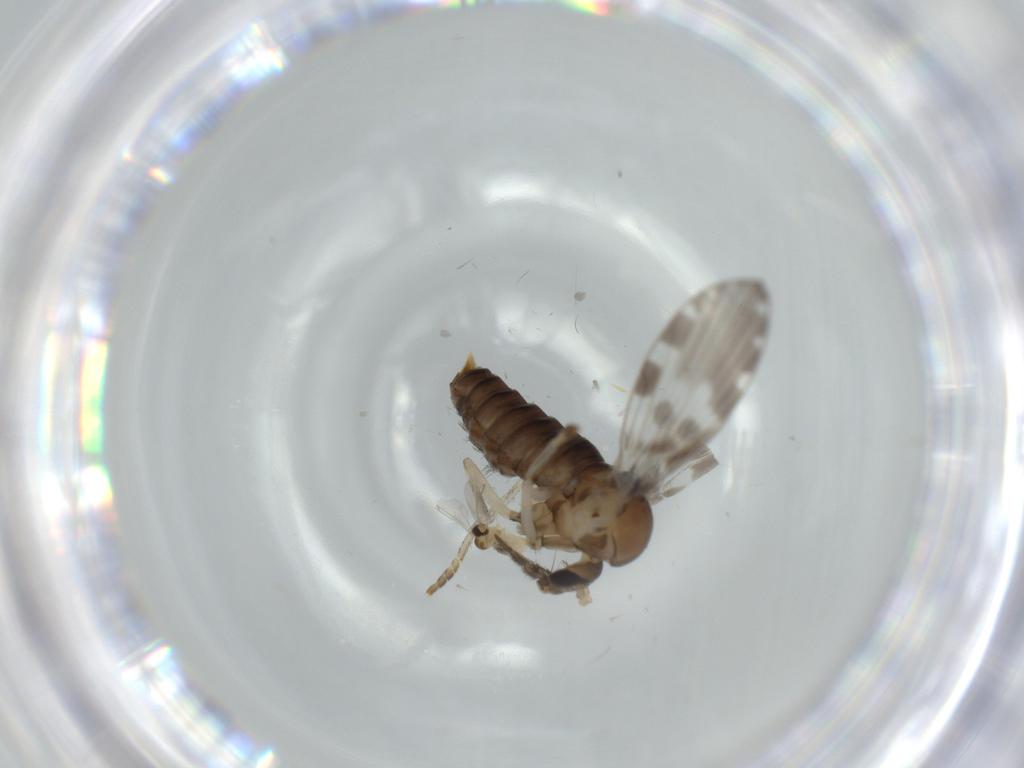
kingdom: Animalia
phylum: Arthropoda
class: Insecta
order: Diptera
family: Psychodidae
